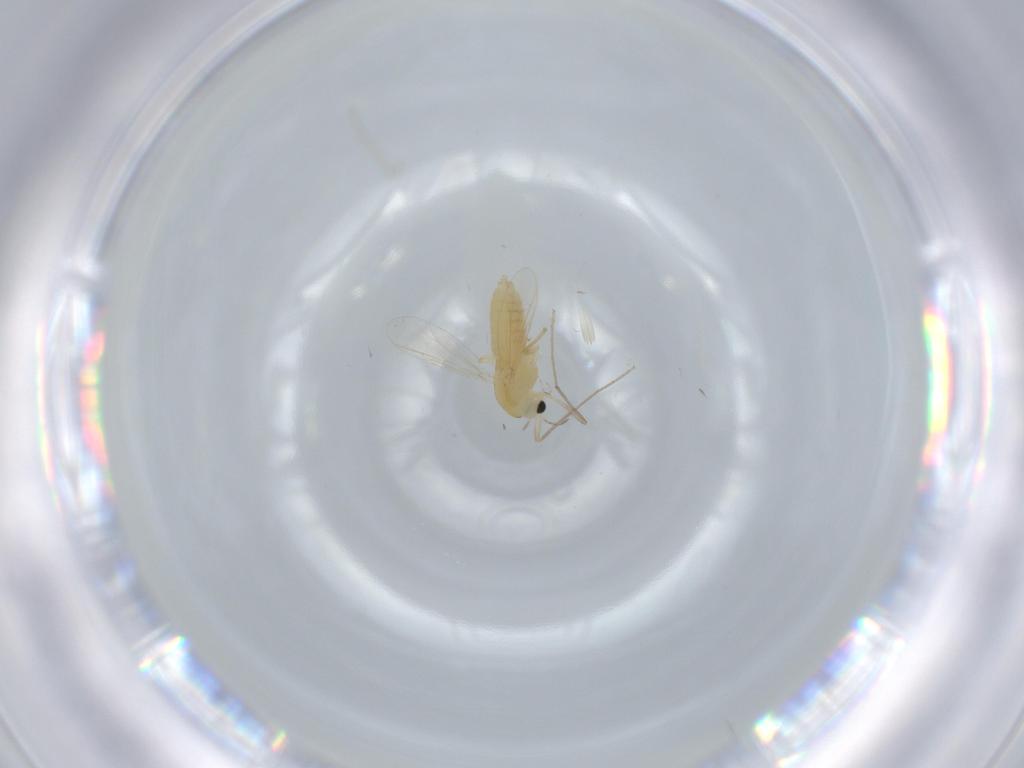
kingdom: Animalia
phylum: Arthropoda
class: Insecta
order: Diptera
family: Chironomidae
